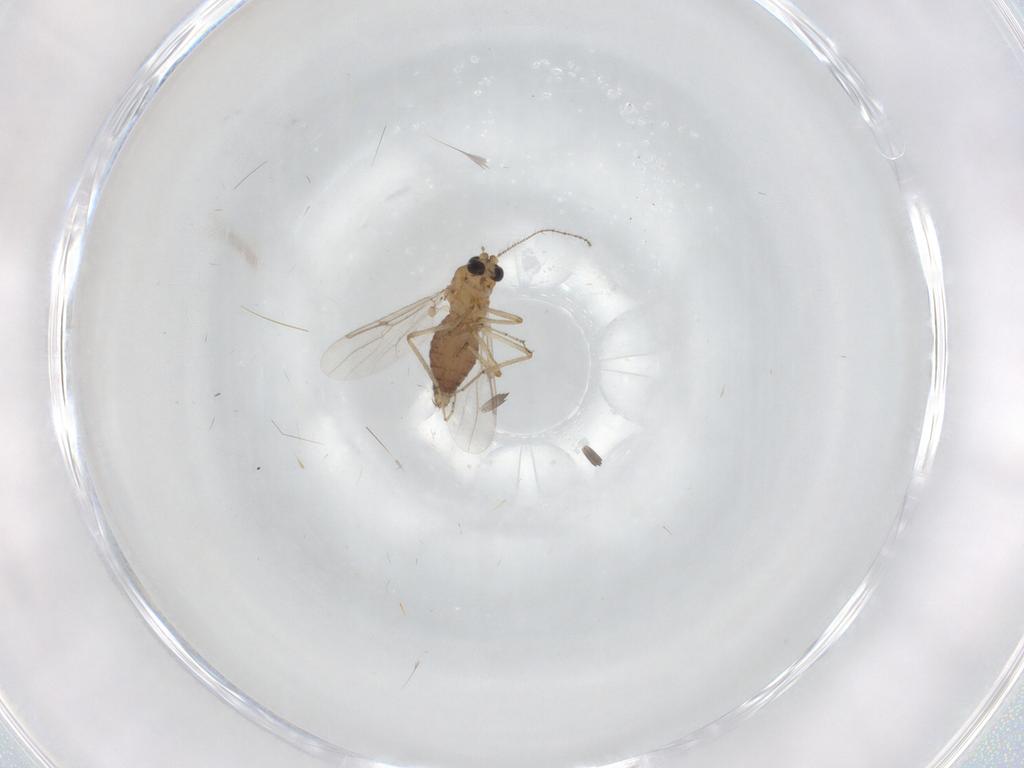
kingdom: Animalia
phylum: Arthropoda
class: Insecta
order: Diptera
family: Ceratopogonidae
